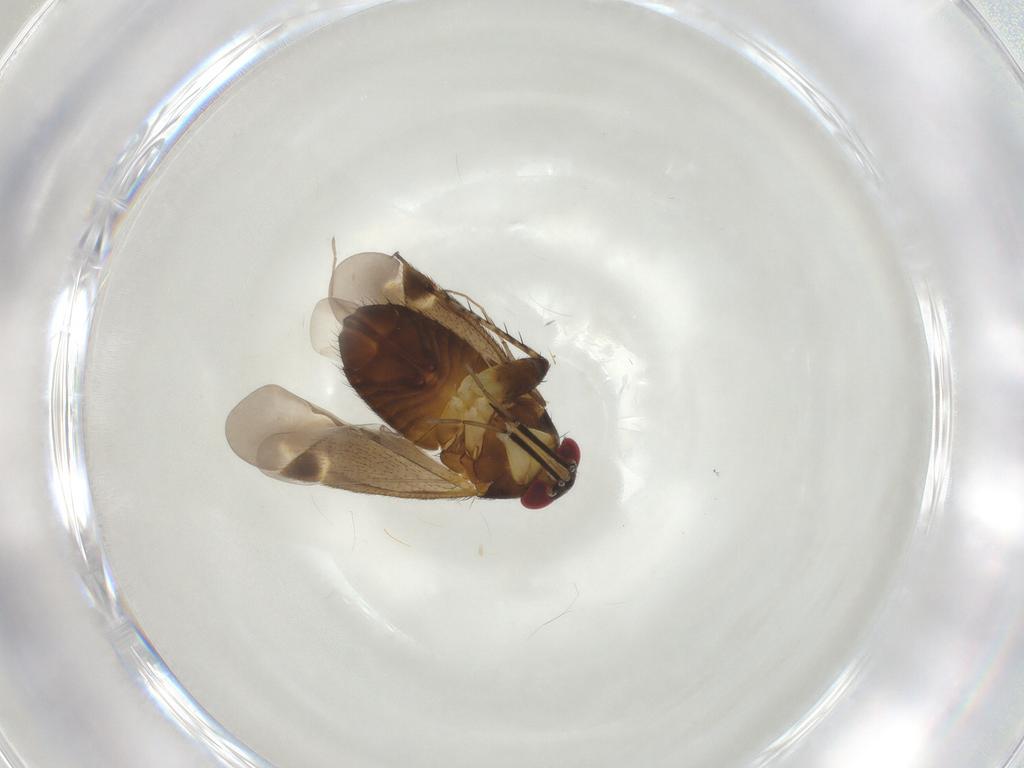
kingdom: Animalia
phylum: Arthropoda
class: Insecta
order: Hemiptera
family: Miridae
